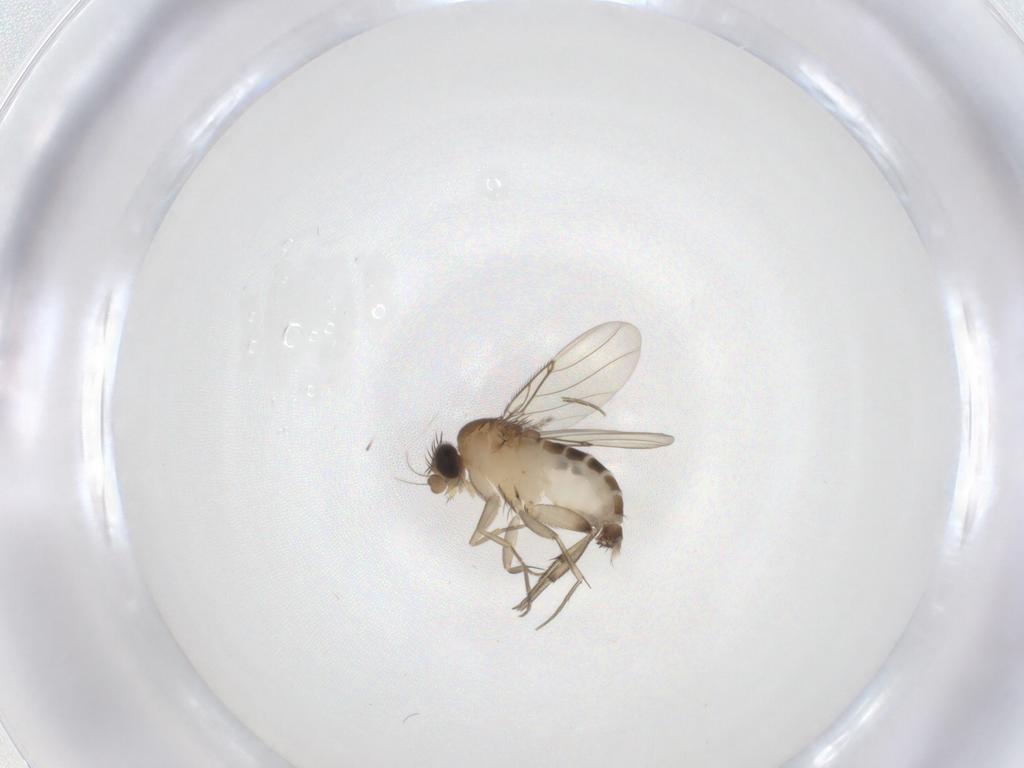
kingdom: Animalia
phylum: Arthropoda
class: Insecta
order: Diptera
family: Phoridae
